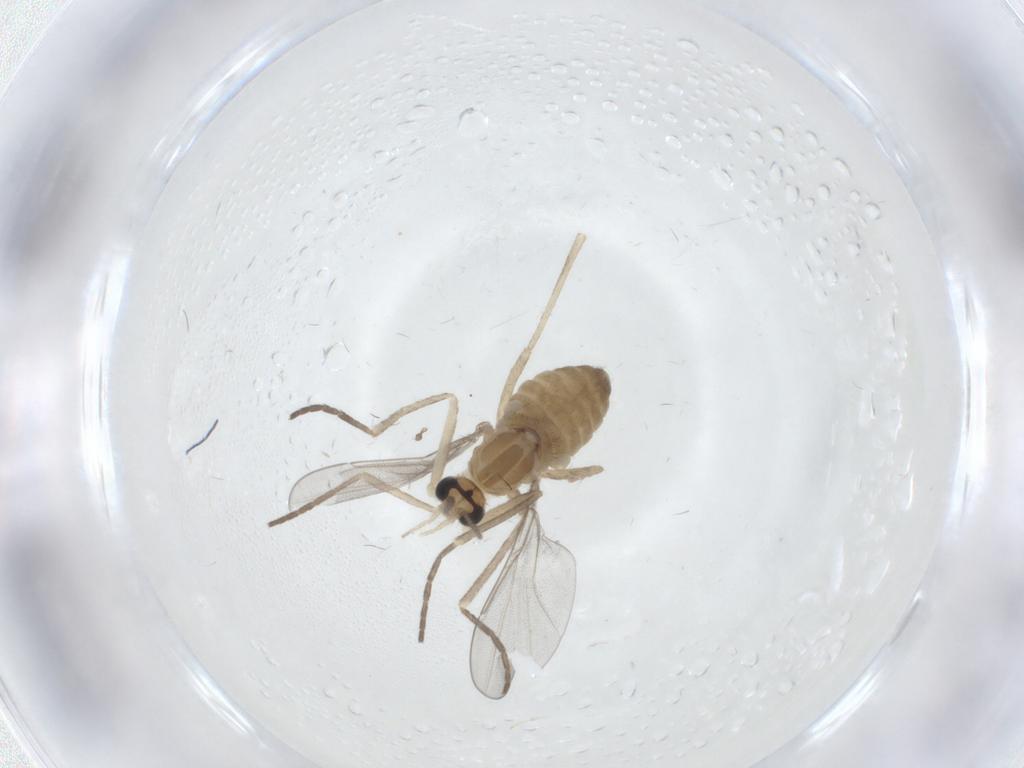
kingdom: Animalia
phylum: Arthropoda
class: Insecta
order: Diptera
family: Cecidomyiidae
